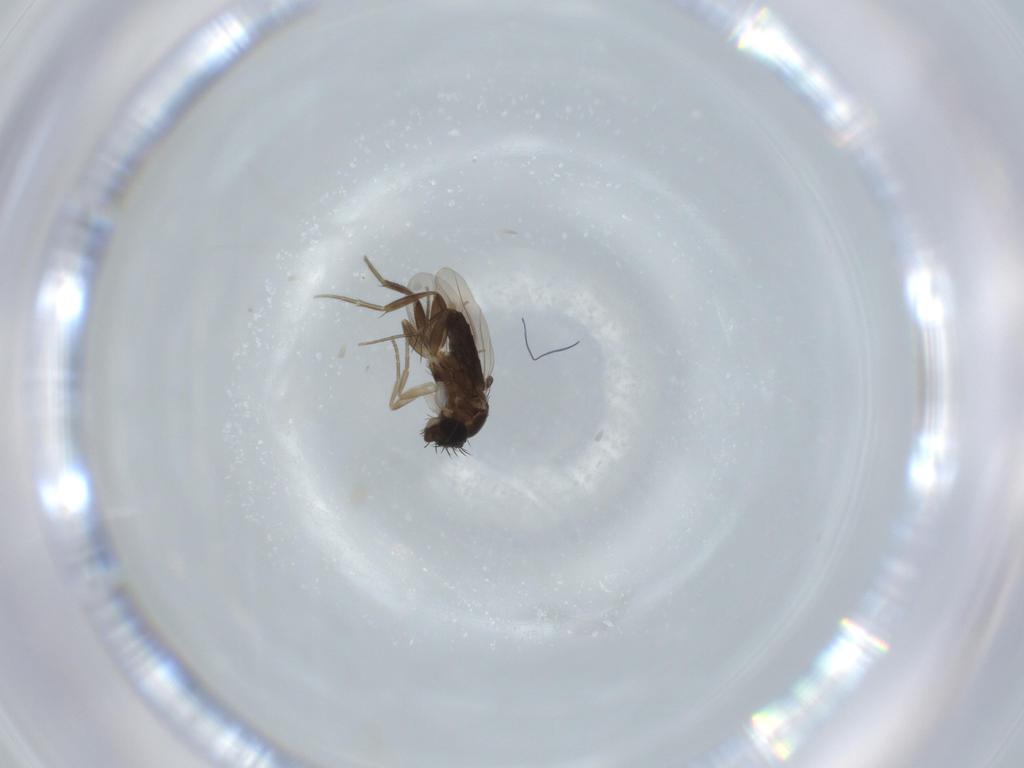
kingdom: Animalia
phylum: Arthropoda
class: Insecta
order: Diptera
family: Phoridae
